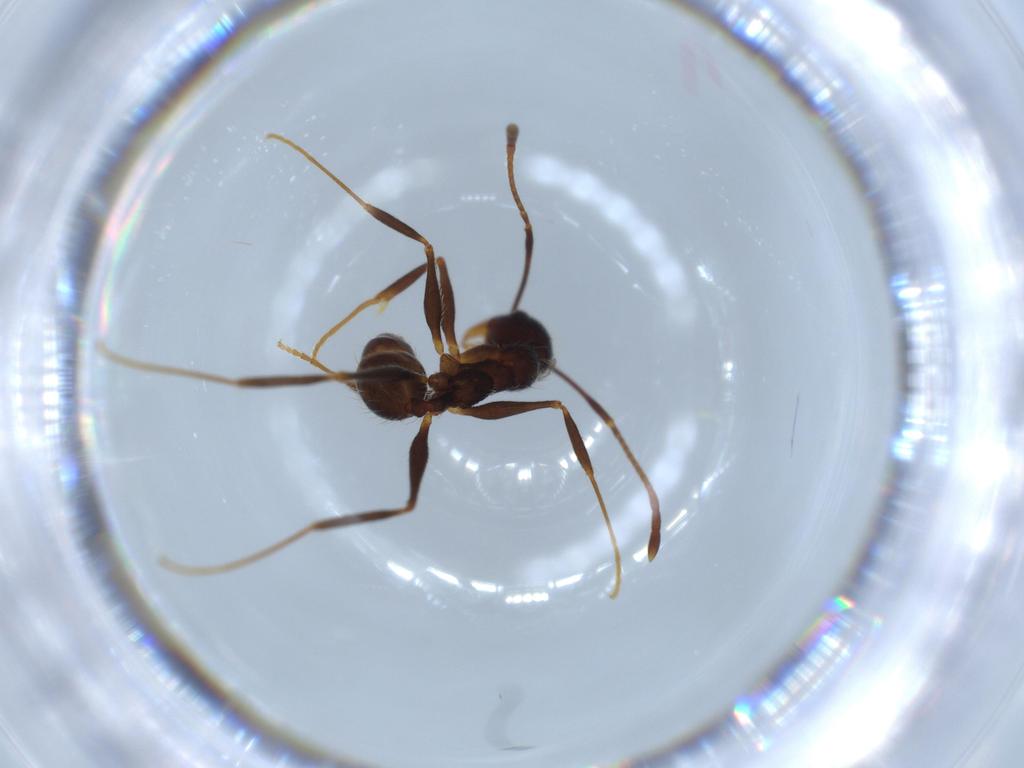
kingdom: Animalia
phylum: Arthropoda
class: Insecta
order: Hymenoptera
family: Formicidae
